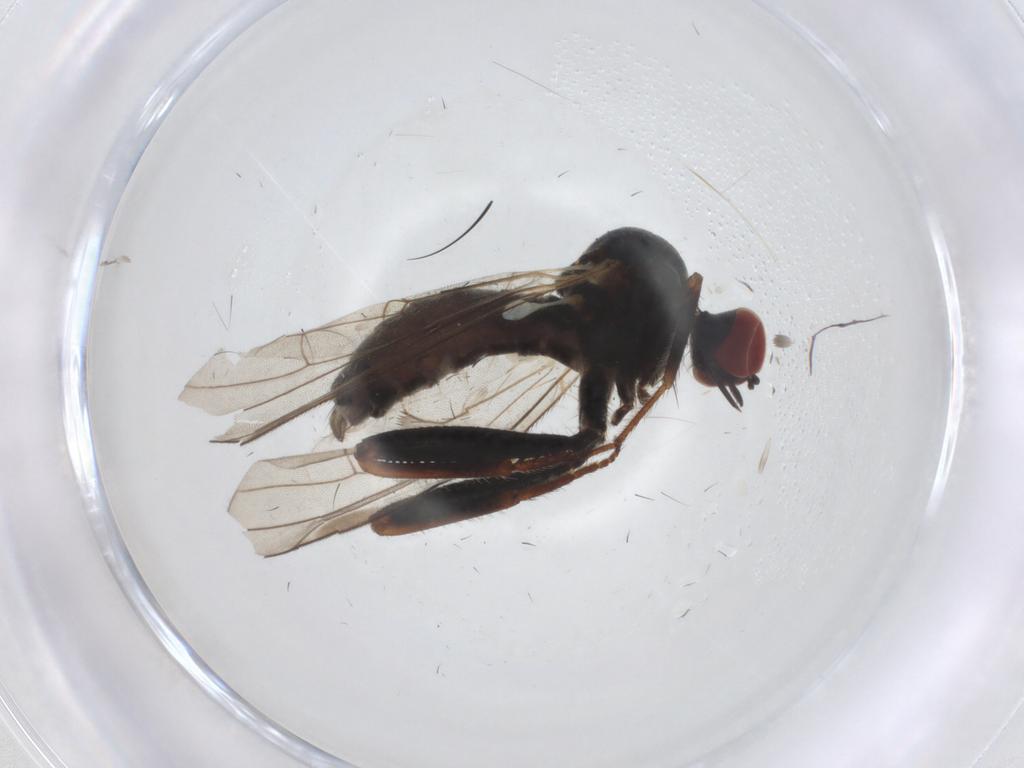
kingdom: Animalia
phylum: Arthropoda
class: Insecta
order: Diptera
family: Hybotidae
